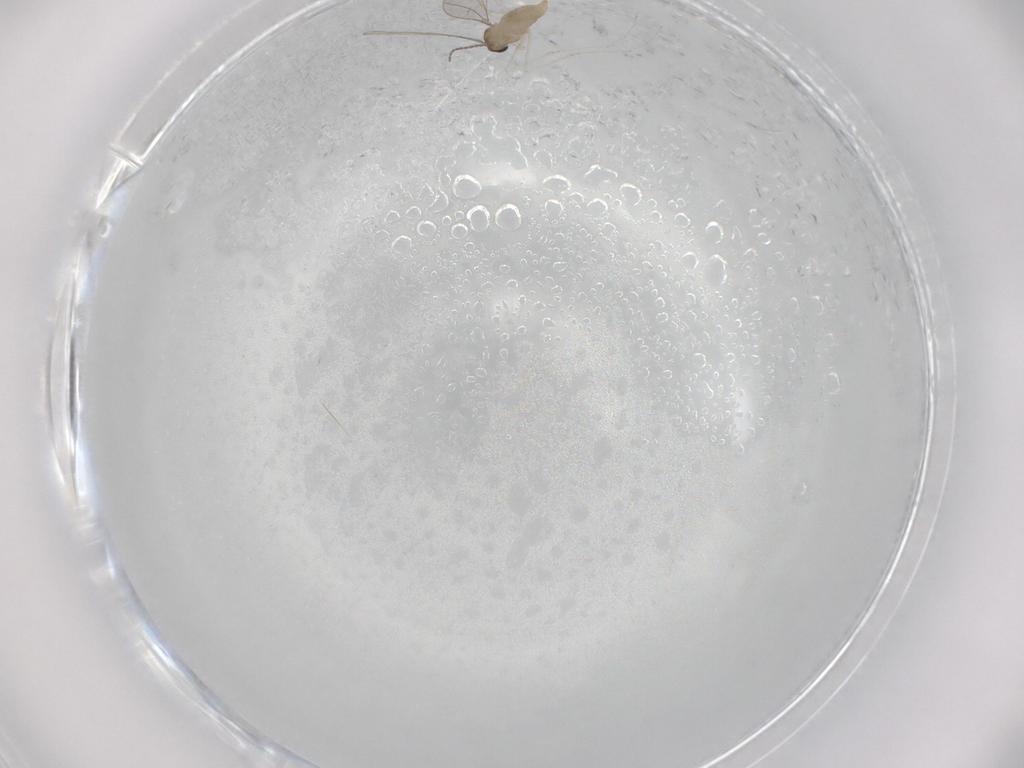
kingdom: Animalia
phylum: Arthropoda
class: Insecta
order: Diptera
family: Cecidomyiidae
